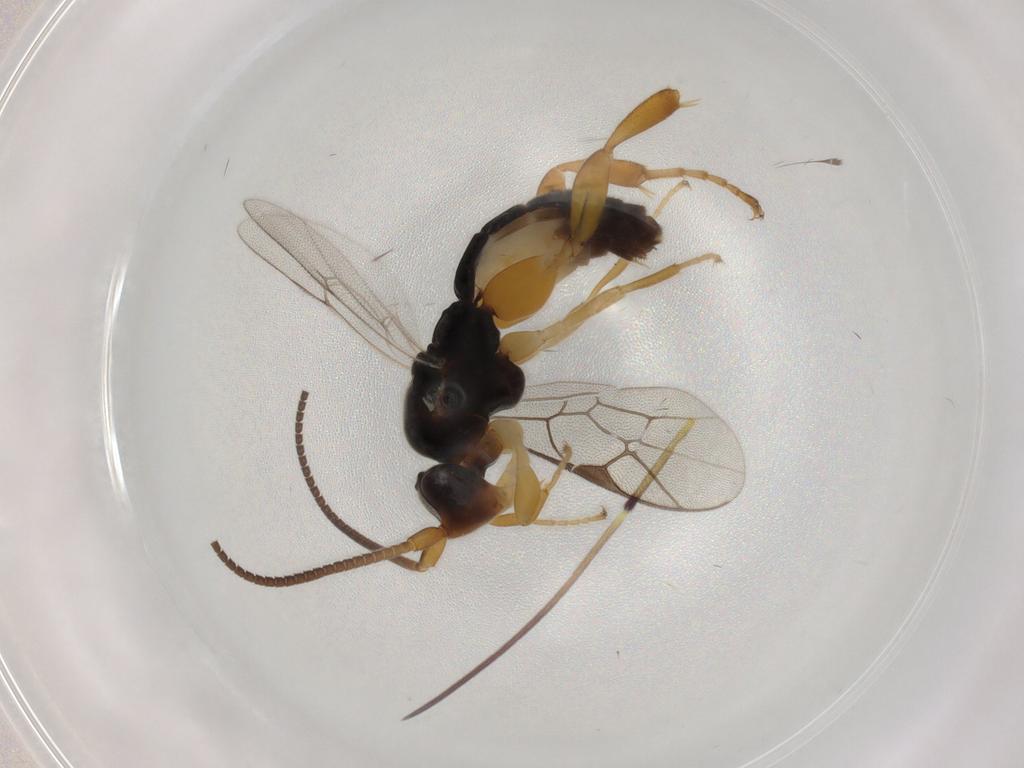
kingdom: Animalia
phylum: Arthropoda
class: Insecta
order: Hymenoptera
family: Ichneumonidae
